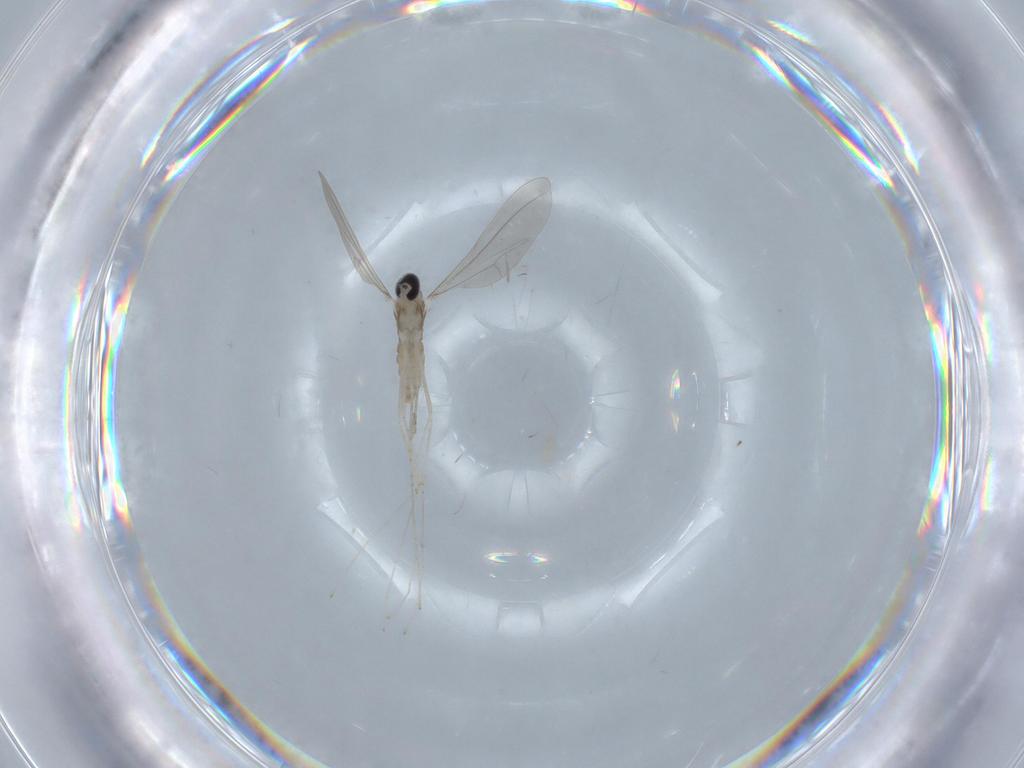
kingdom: Animalia
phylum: Arthropoda
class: Insecta
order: Diptera
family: Cecidomyiidae
